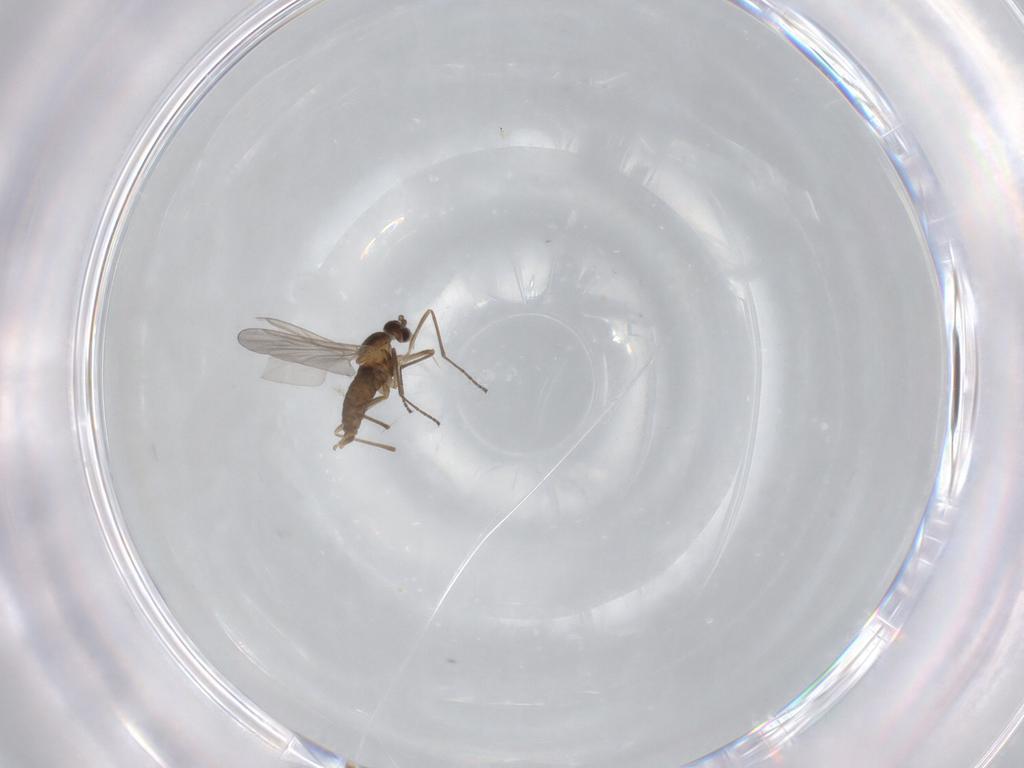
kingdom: Animalia
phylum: Arthropoda
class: Insecta
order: Diptera
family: Cecidomyiidae
